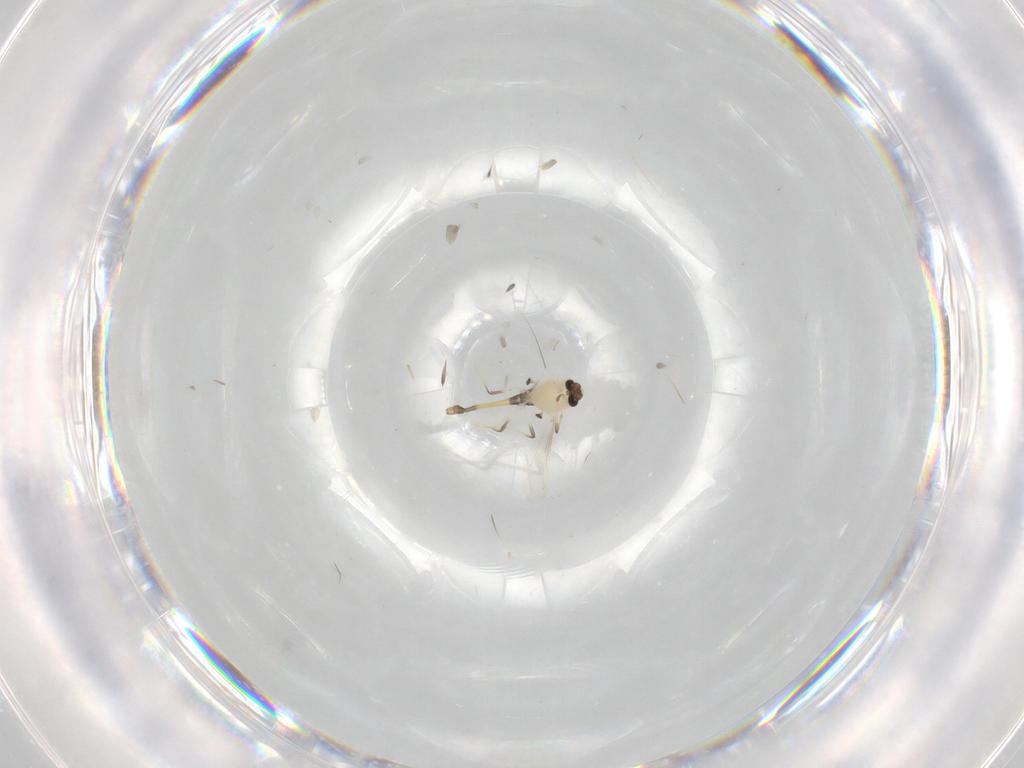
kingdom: Animalia
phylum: Arthropoda
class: Insecta
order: Diptera
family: Chironomidae
